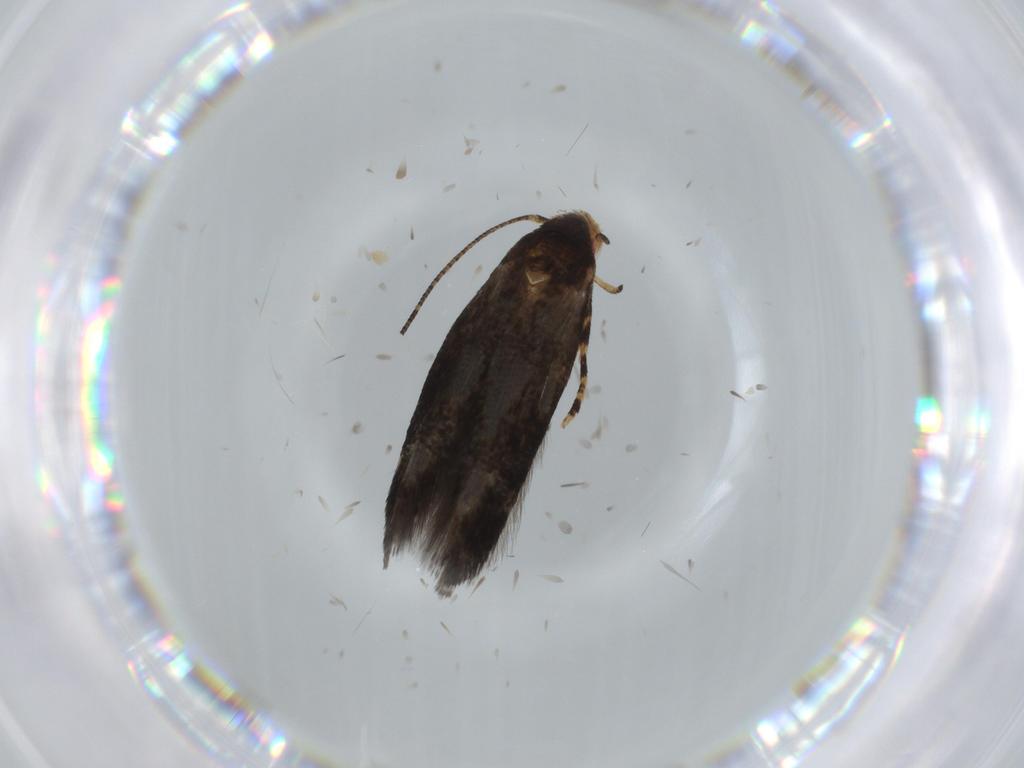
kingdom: Animalia
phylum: Arthropoda
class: Insecta
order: Lepidoptera
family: Momphidae
